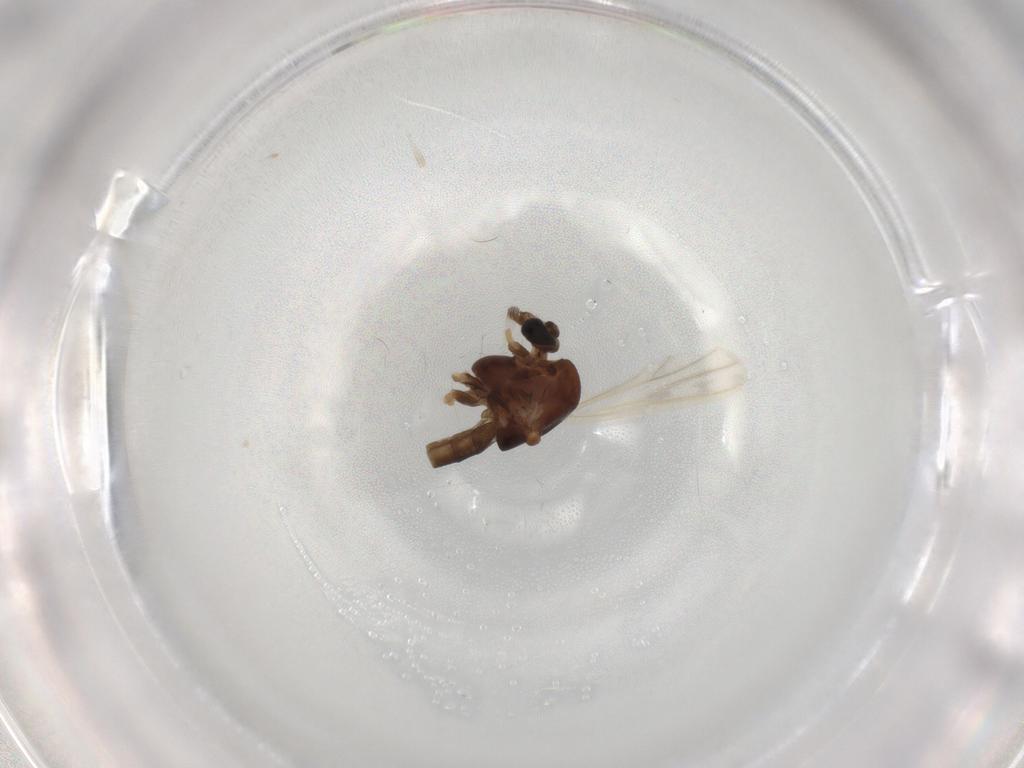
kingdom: Animalia
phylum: Arthropoda
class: Insecta
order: Diptera
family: Chironomidae
